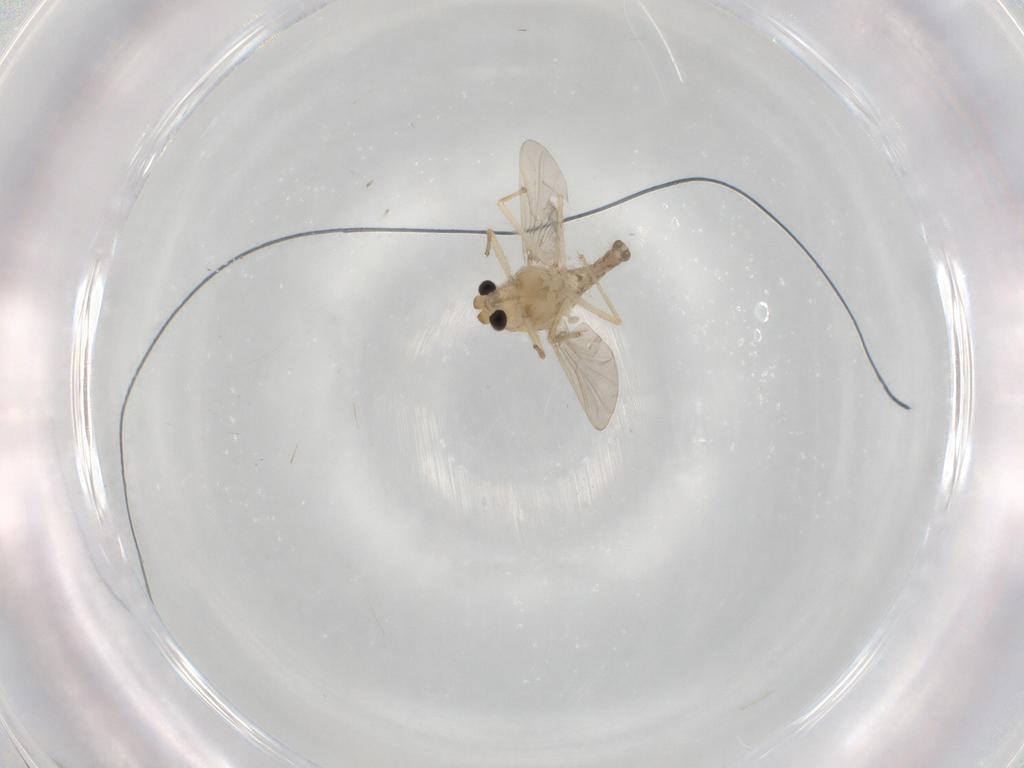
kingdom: Animalia
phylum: Arthropoda
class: Insecta
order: Diptera
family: Chironomidae
